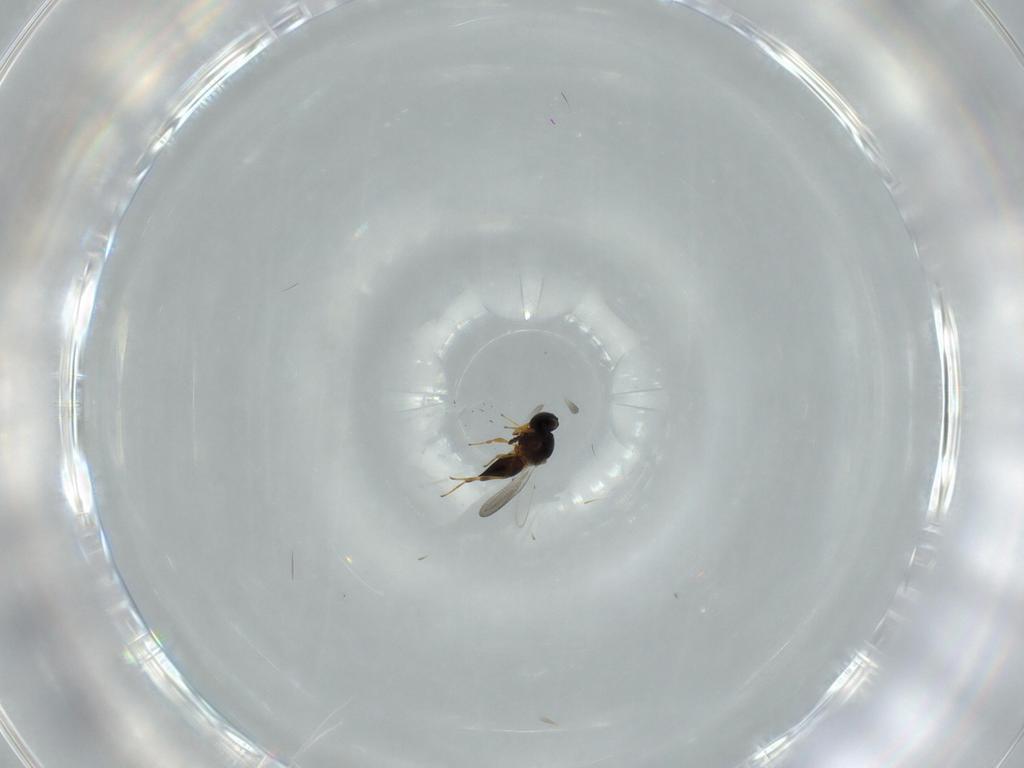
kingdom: Animalia
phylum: Arthropoda
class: Insecta
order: Hymenoptera
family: Platygastridae
